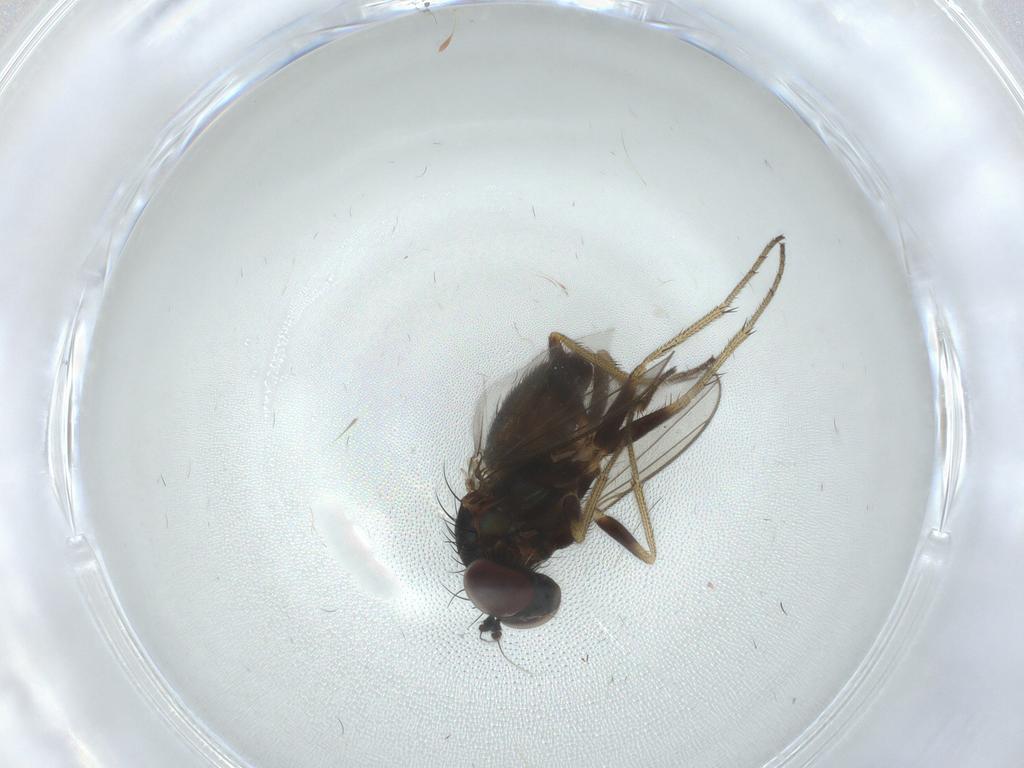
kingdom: Animalia
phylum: Arthropoda
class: Insecta
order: Diptera
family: Dolichopodidae
